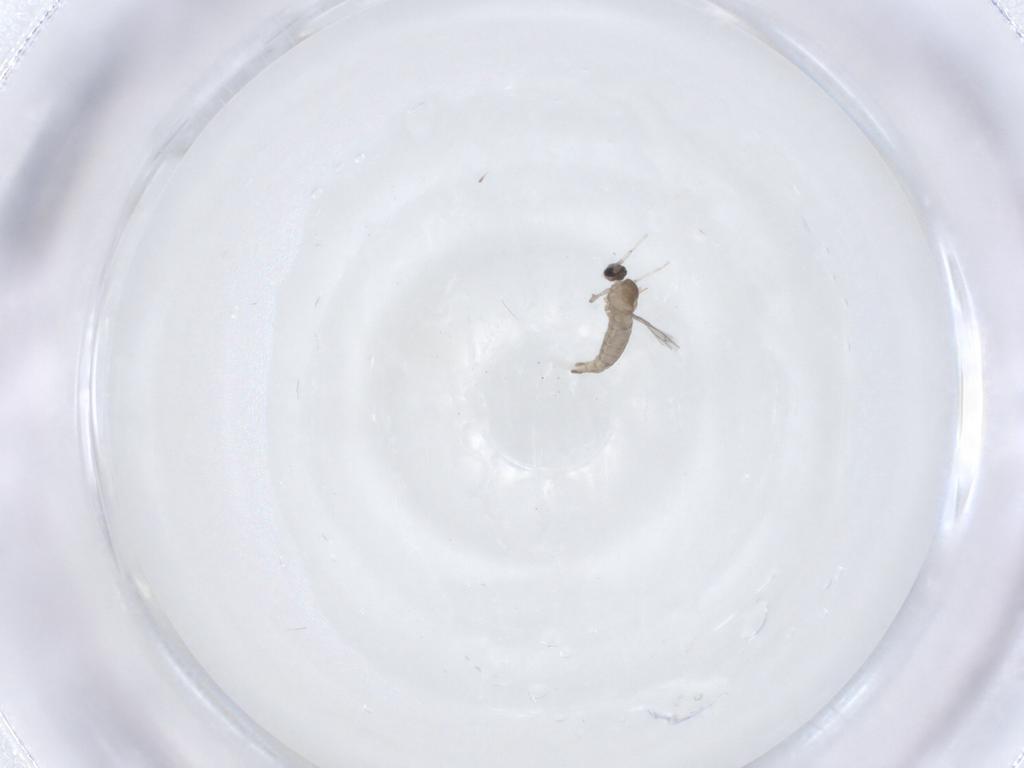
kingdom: Animalia
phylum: Arthropoda
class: Insecta
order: Diptera
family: Cecidomyiidae
